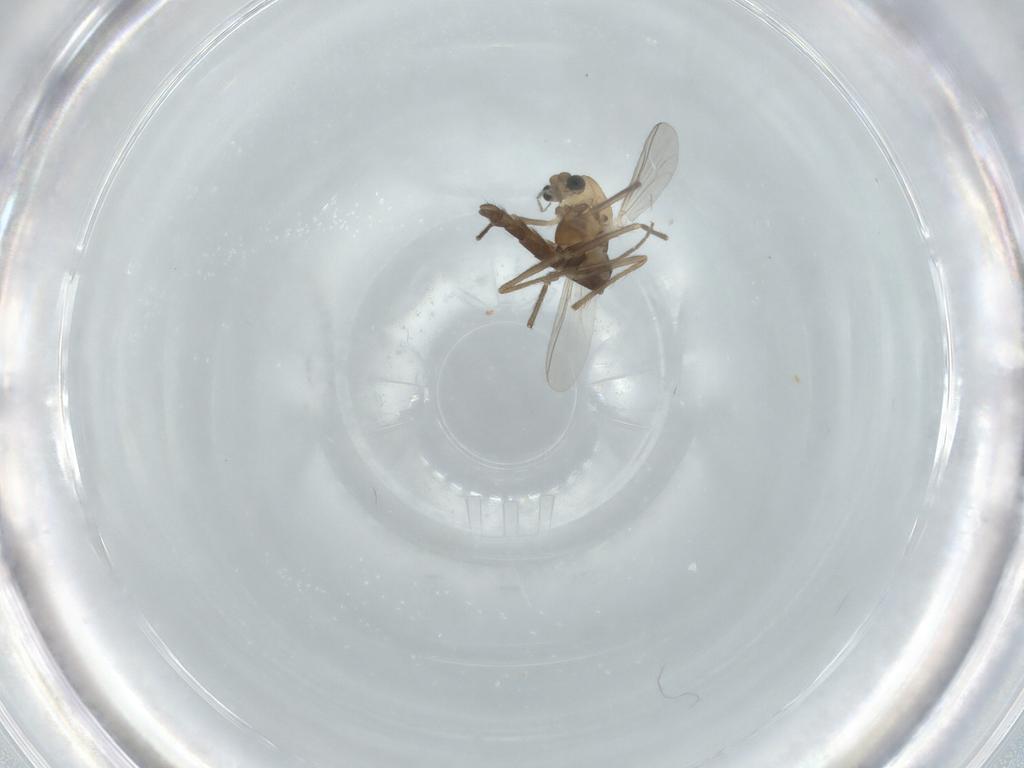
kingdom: Animalia
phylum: Arthropoda
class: Insecta
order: Diptera
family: Chironomidae
